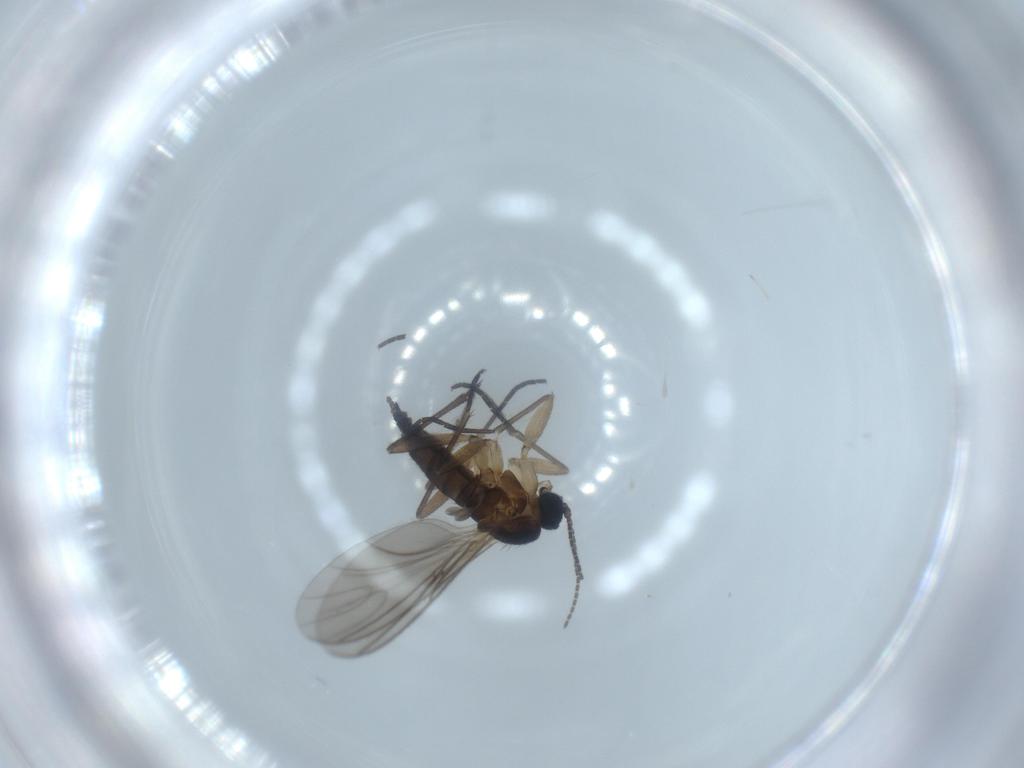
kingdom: Animalia
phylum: Arthropoda
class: Insecta
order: Diptera
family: Sciaridae
